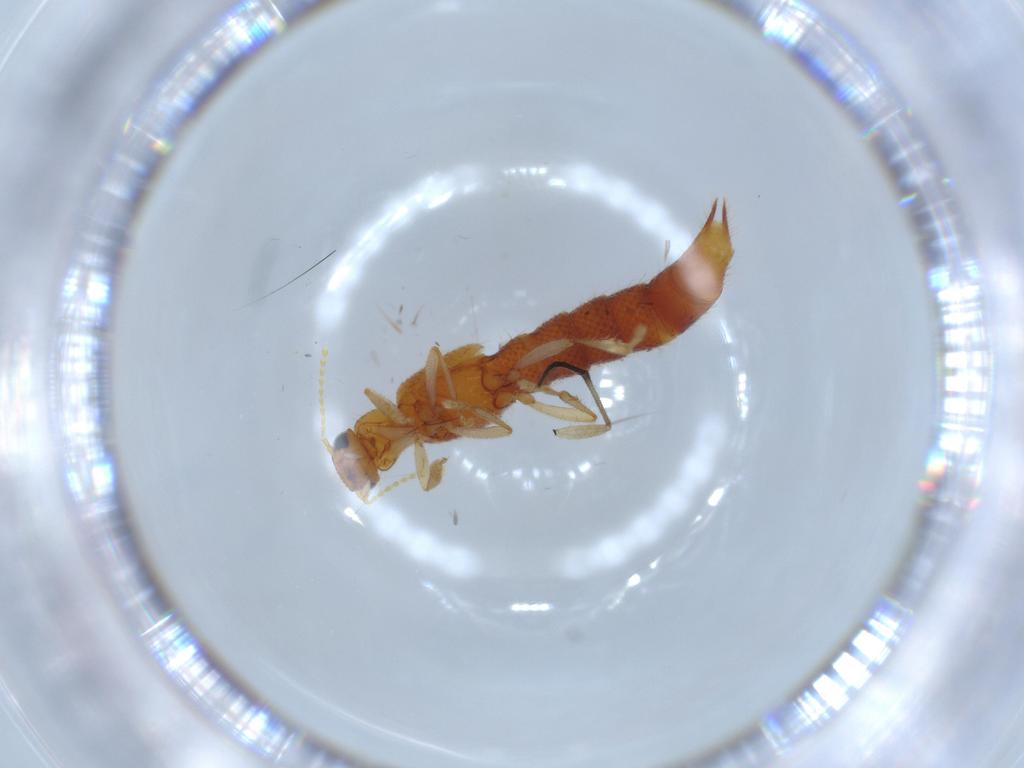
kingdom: Animalia
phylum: Arthropoda
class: Insecta
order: Coleoptera
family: Staphylinidae
